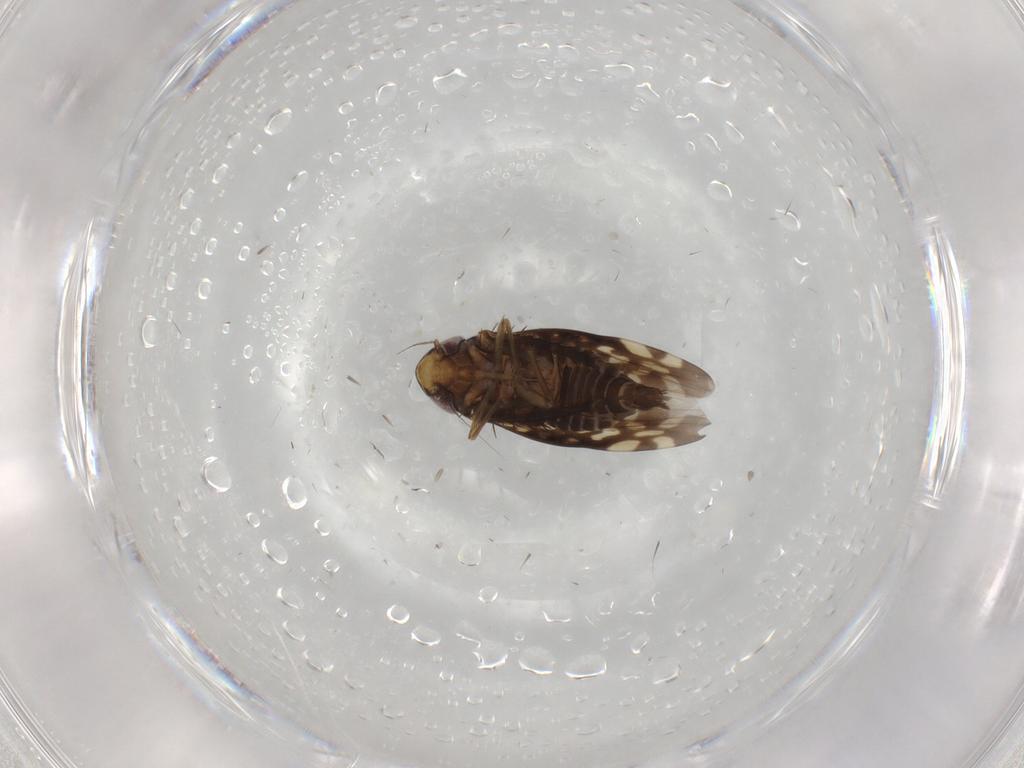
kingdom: Animalia
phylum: Arthropoda
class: Insecta
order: Hemiptera
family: Cicadellidae
